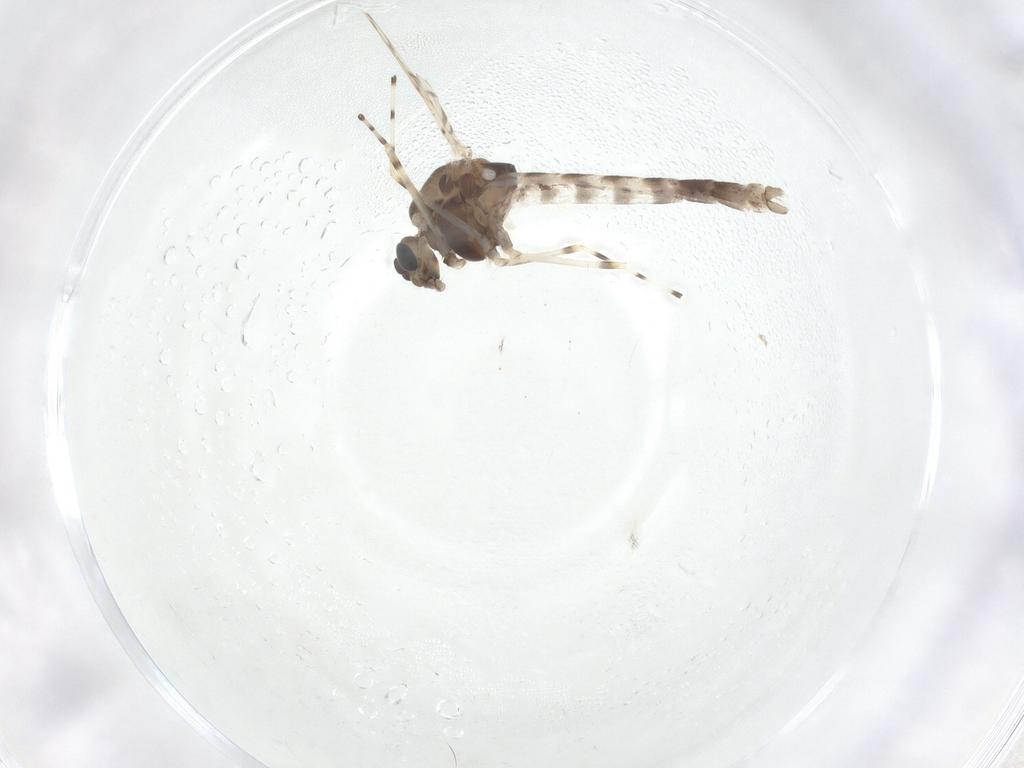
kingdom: Animalia
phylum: Arthropoda
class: Insecta
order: Diptera
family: Chironomidae
